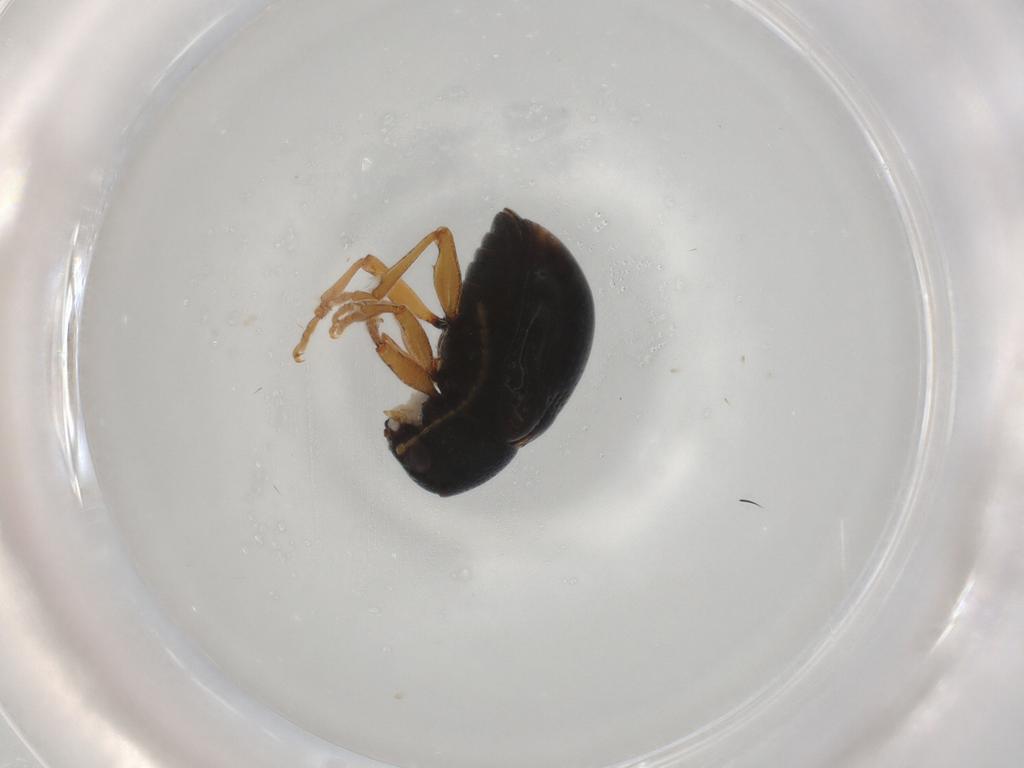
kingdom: Animalia
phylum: Arthropoda
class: Insecta
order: Coleoptera
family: Chrysomelidae
